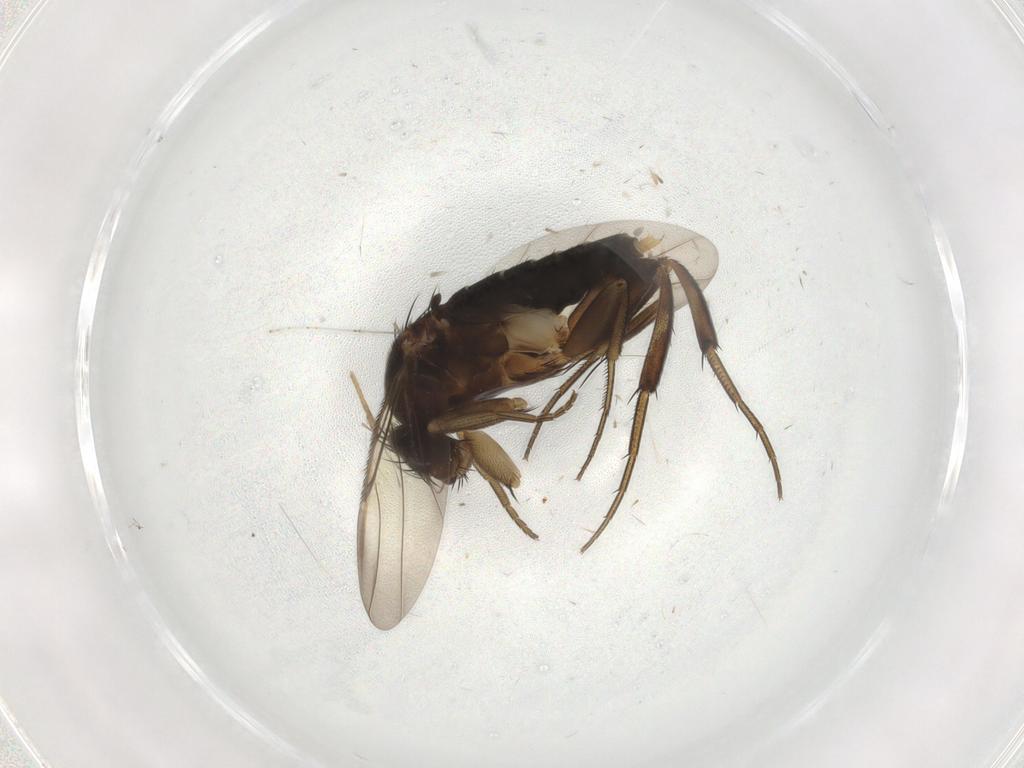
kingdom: Animalia
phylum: Arthropoda
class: Insecta
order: Diptera
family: Phoridae
